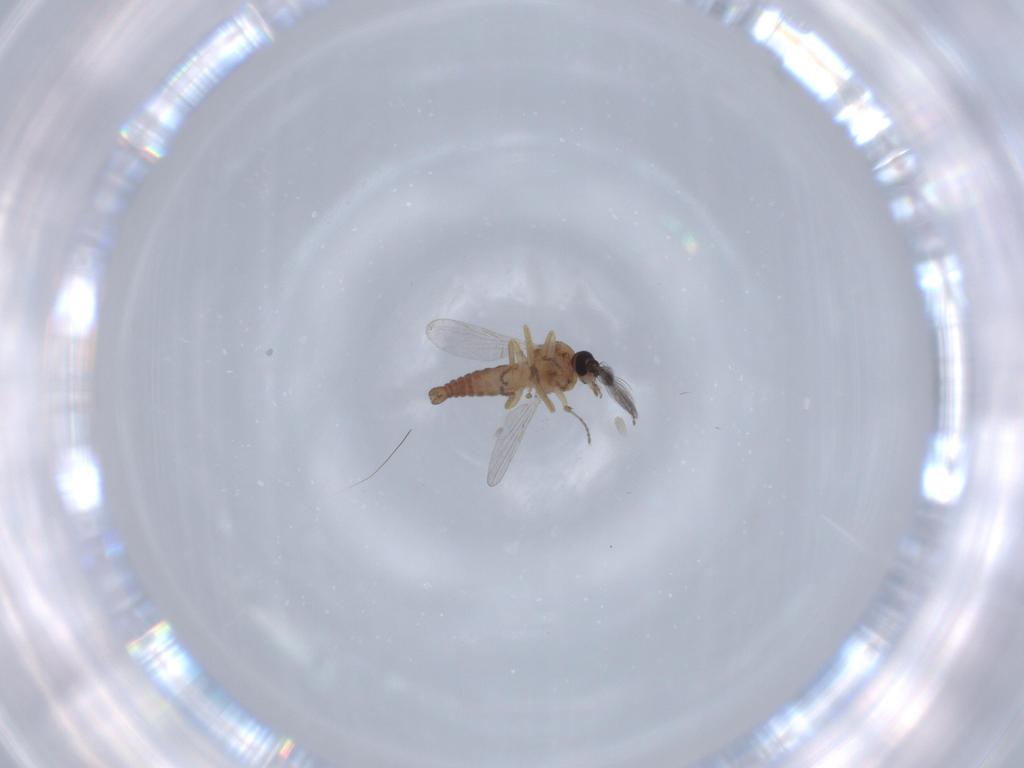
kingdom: Animalia
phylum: Arthropoda
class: Insecta
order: Diptera
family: Ceratopogonidae
